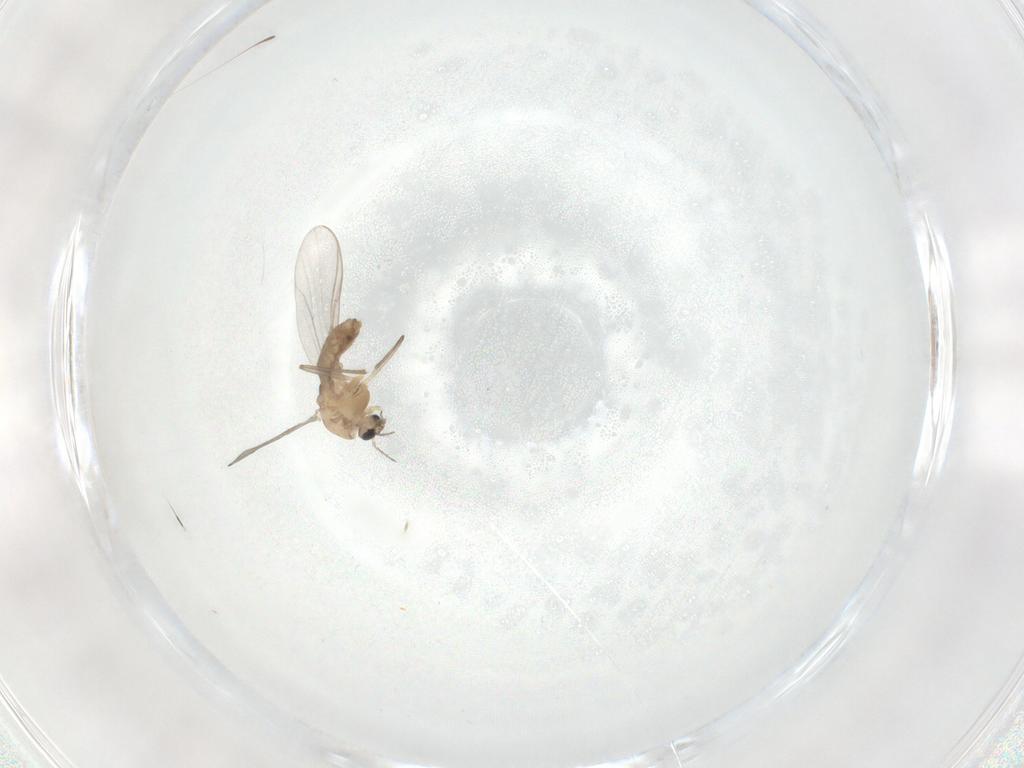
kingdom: Animalia
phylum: Arthropoda
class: Insecta
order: Diptera
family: Chironomidae
